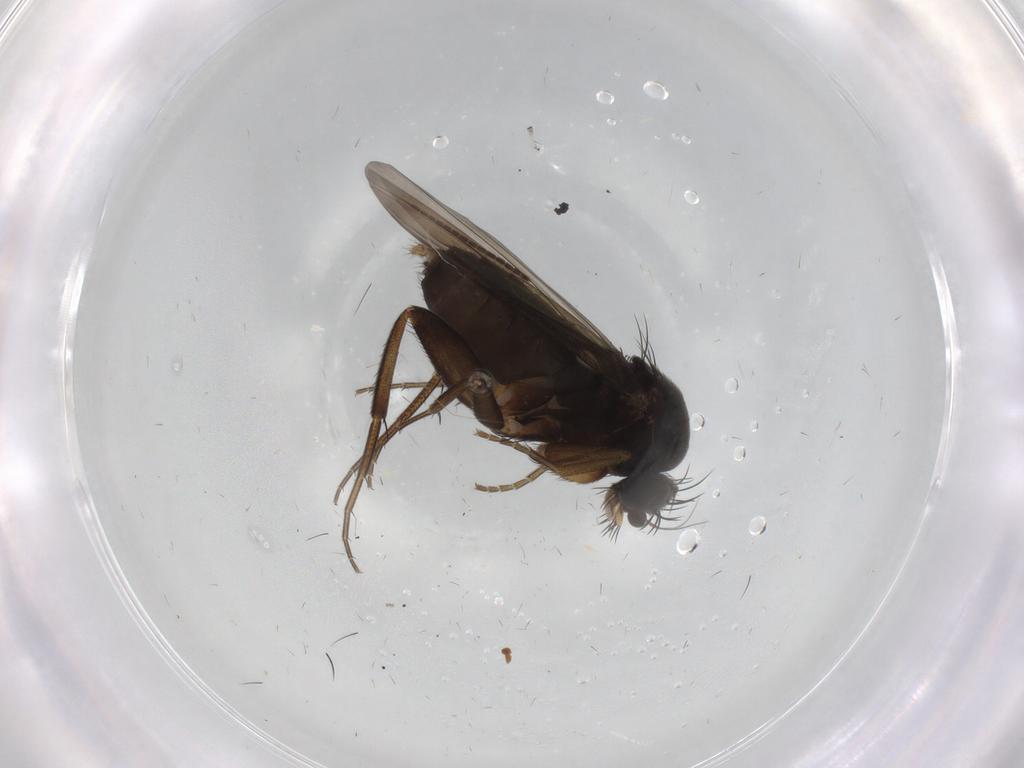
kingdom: Animalia
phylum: Arthropoda
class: Insecta
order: Diptera
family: Phoridae
